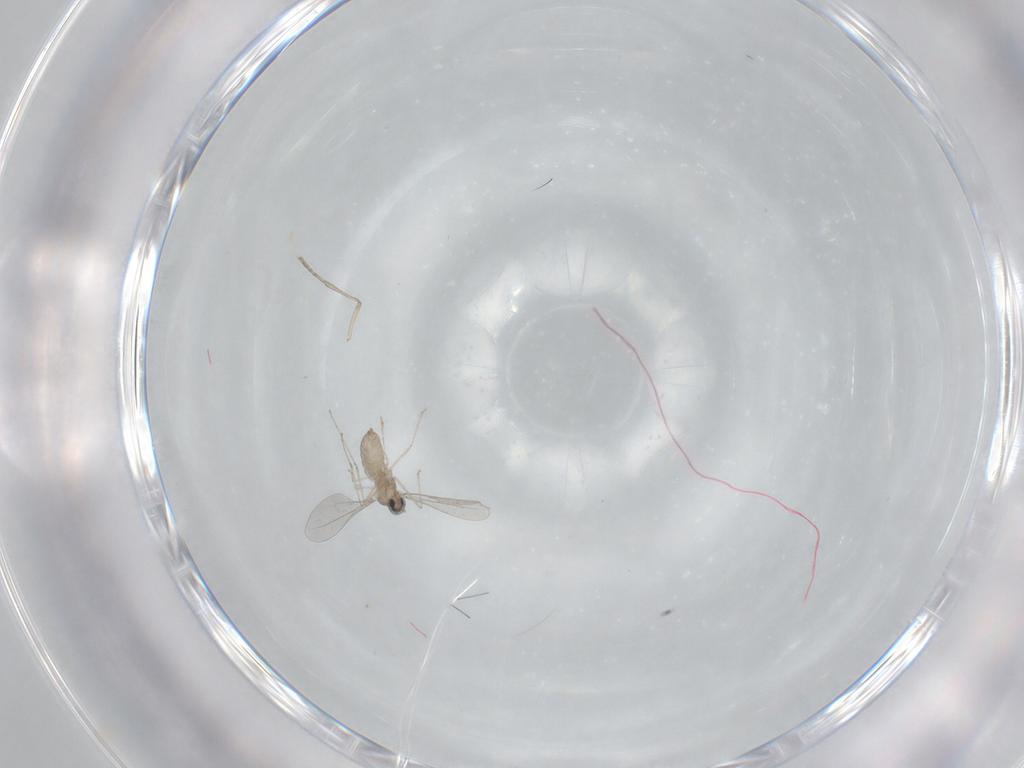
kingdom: Animalia
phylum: Arthropoda
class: Insecta
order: Diptera
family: Cecidomyiidae
